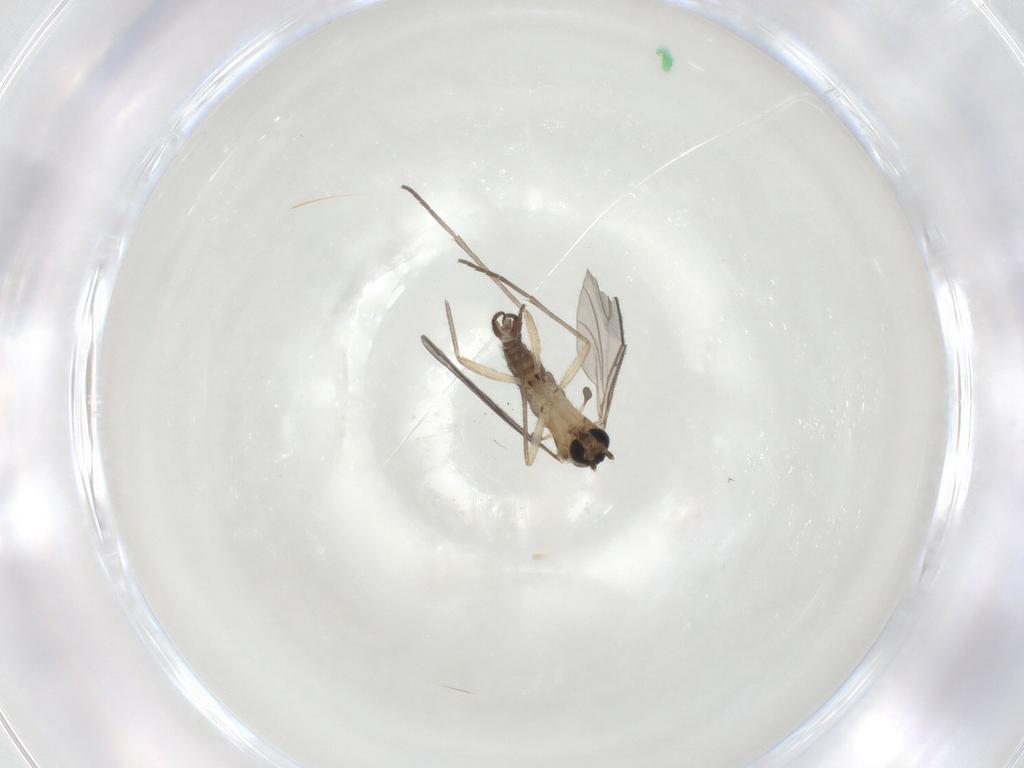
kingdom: Animalia
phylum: Arthropoda
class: Insecta
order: Diptera
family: Sciaridae
